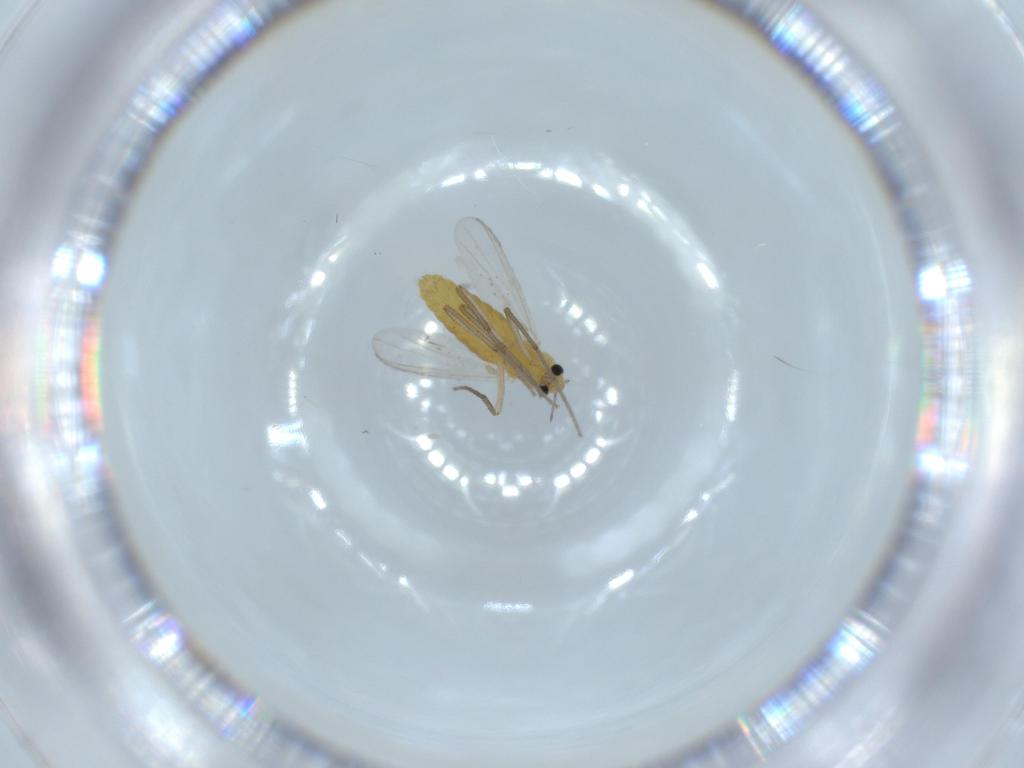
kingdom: Animalia
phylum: Arthropoda
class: Insecta
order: Diptera
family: Chironomidae
